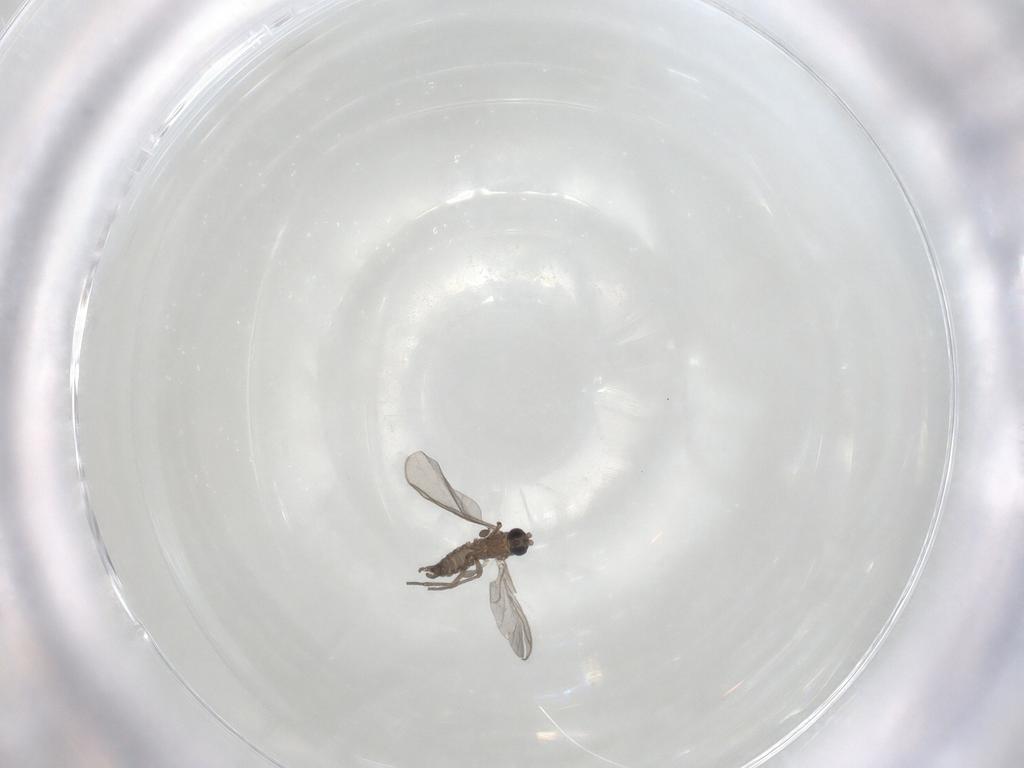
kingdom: Animalia
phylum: Arthropoda
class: Insecta
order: Diptera
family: Sciaridae
